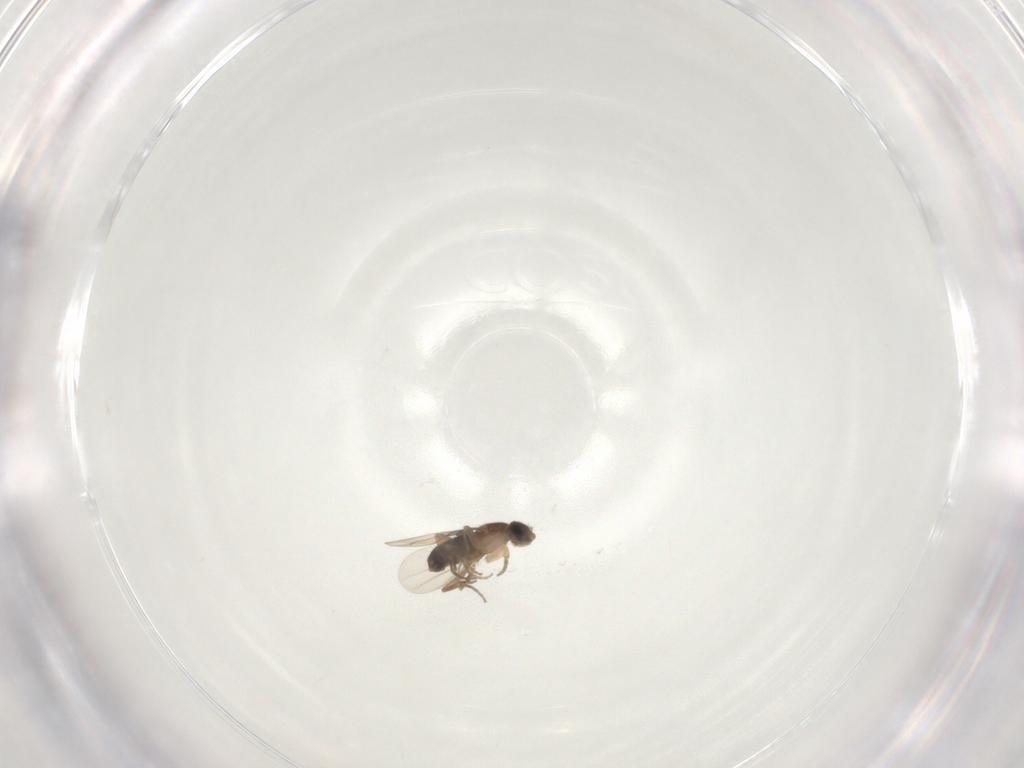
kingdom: Animalia
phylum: Arthropoda
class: Insecta
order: Diptera
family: Phoridae
